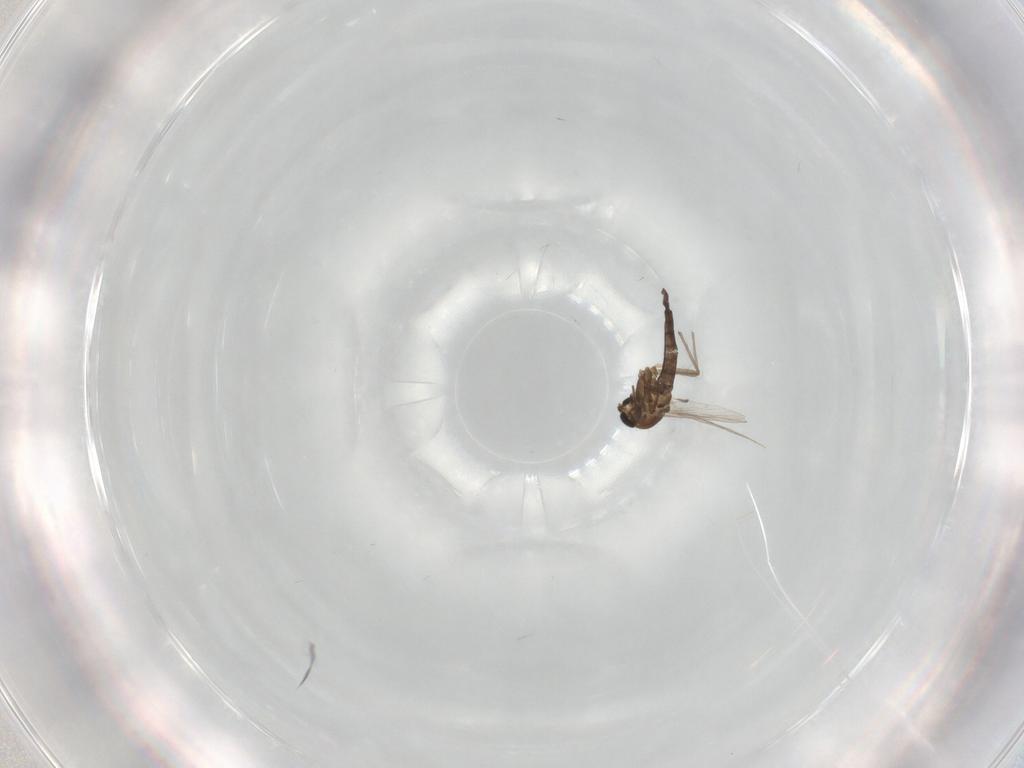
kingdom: Animalia
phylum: Arthropoda
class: Insecta
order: Diptera
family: Chironomidae
